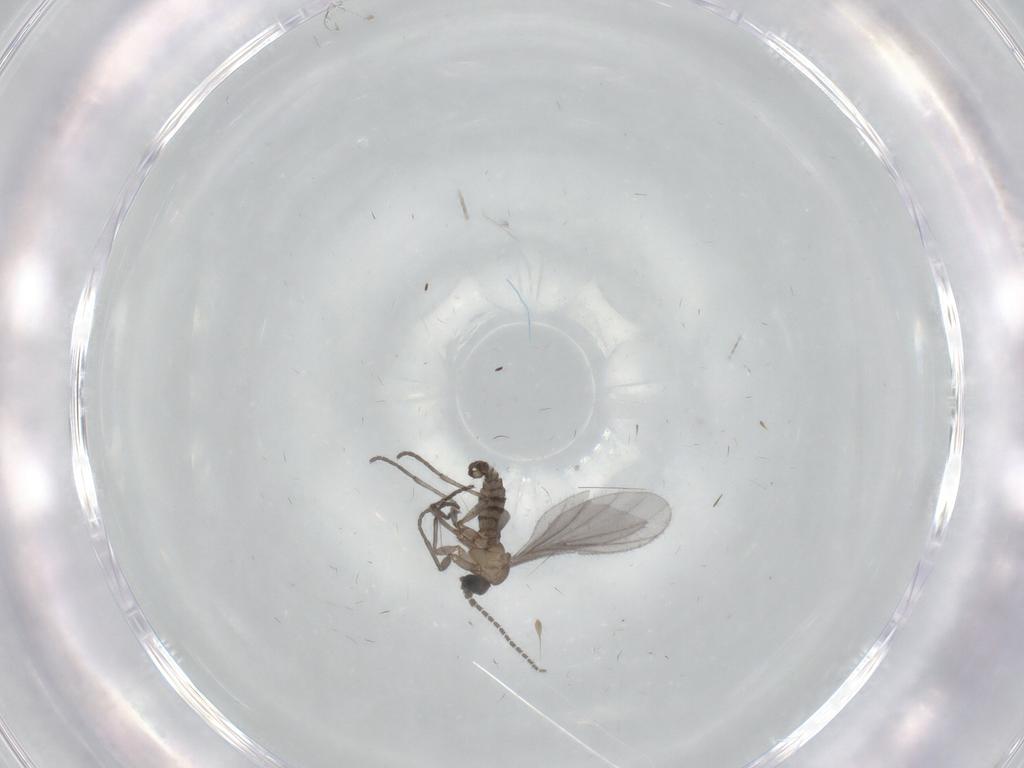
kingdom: Animalia
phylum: Arthropoda
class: Insecta
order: Diptera
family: Sciaridae
